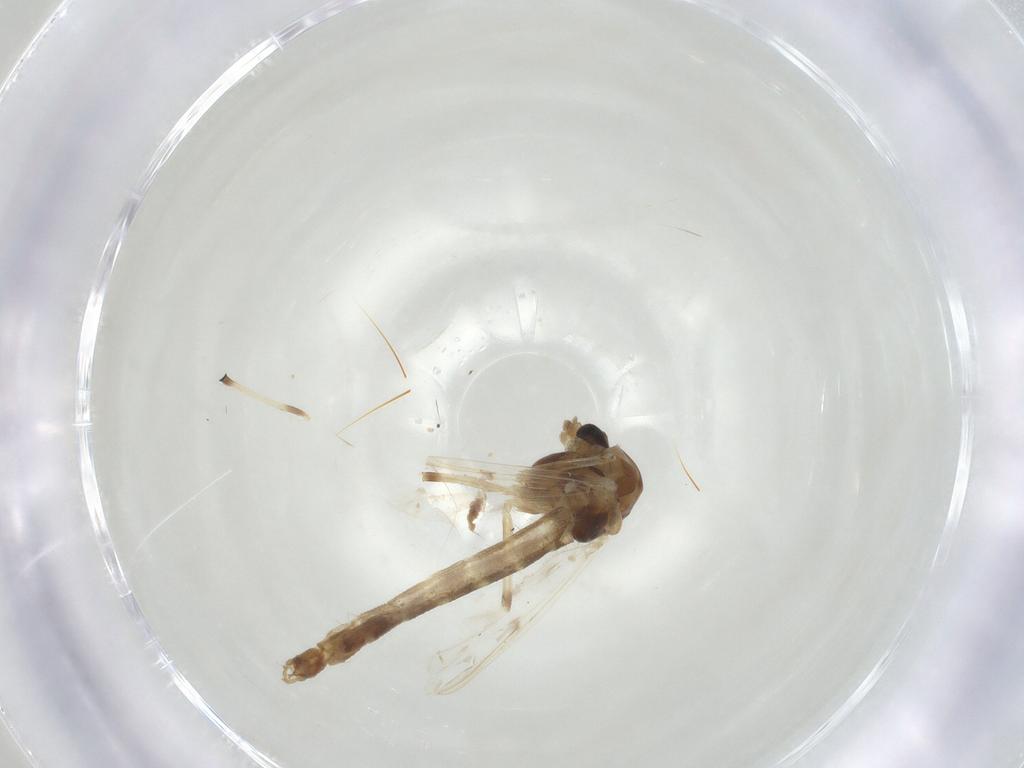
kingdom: Animalia
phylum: Arthropoda
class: Insecta
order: Diptera
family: Chironomidae
